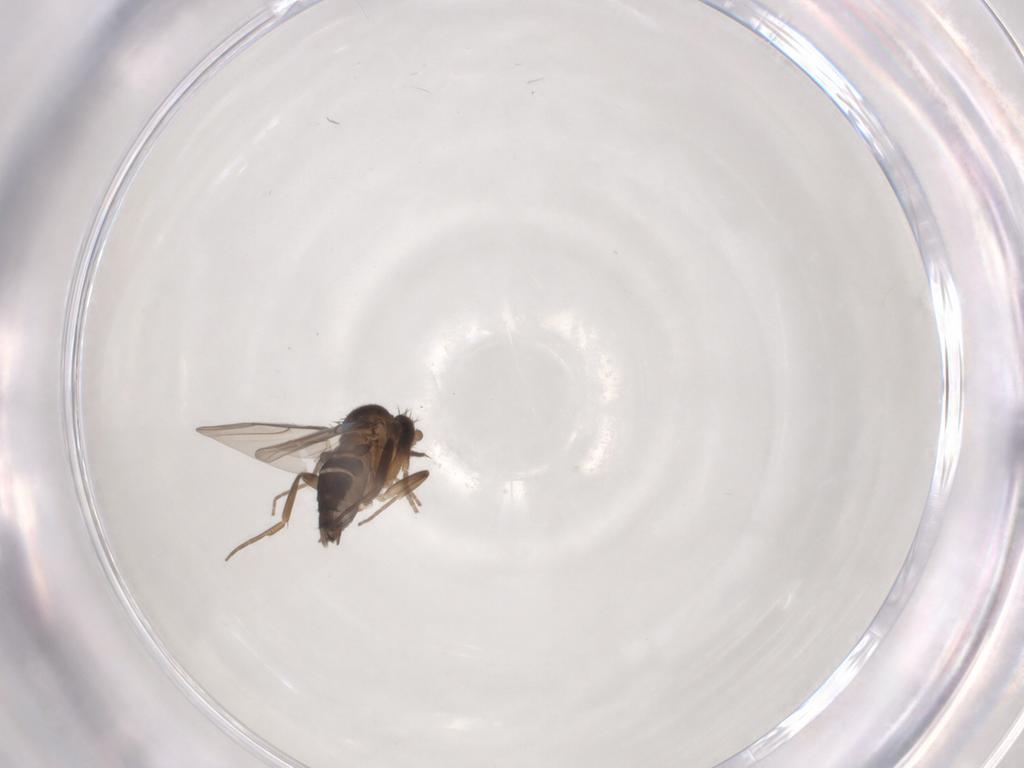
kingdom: Animalia
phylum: Arthropoda
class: Insecta
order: Diptera
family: Phoridae
